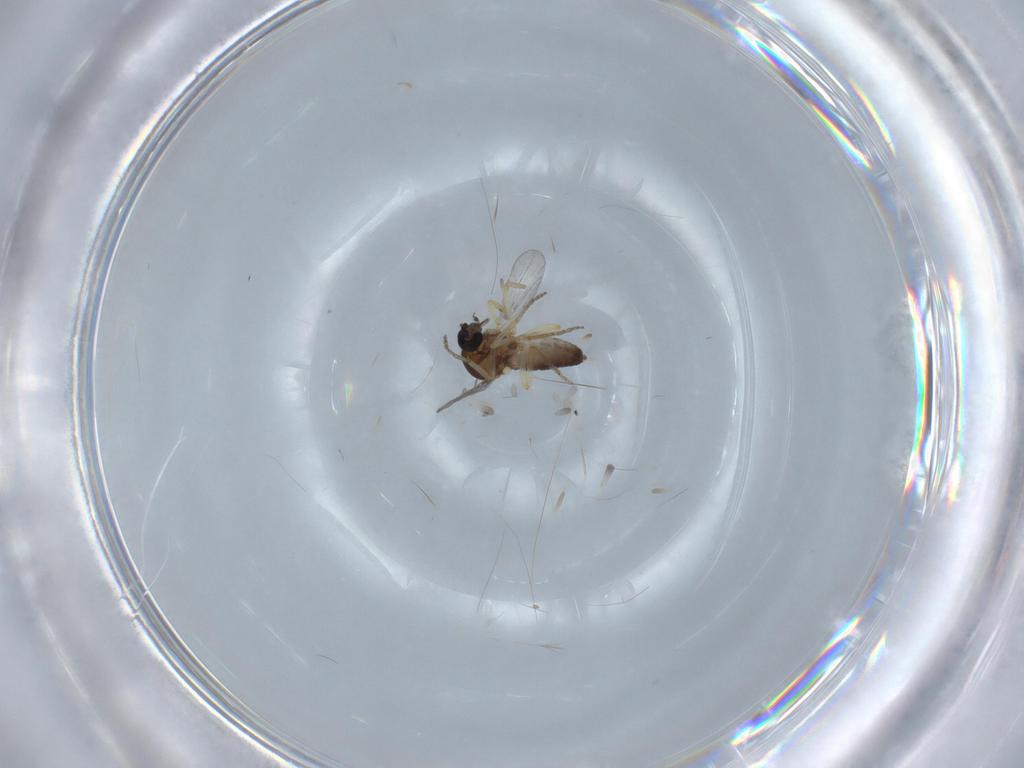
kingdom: Animalia
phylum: Arthropoda
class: Insecta
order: Diptera
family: Ceratopogonidae
